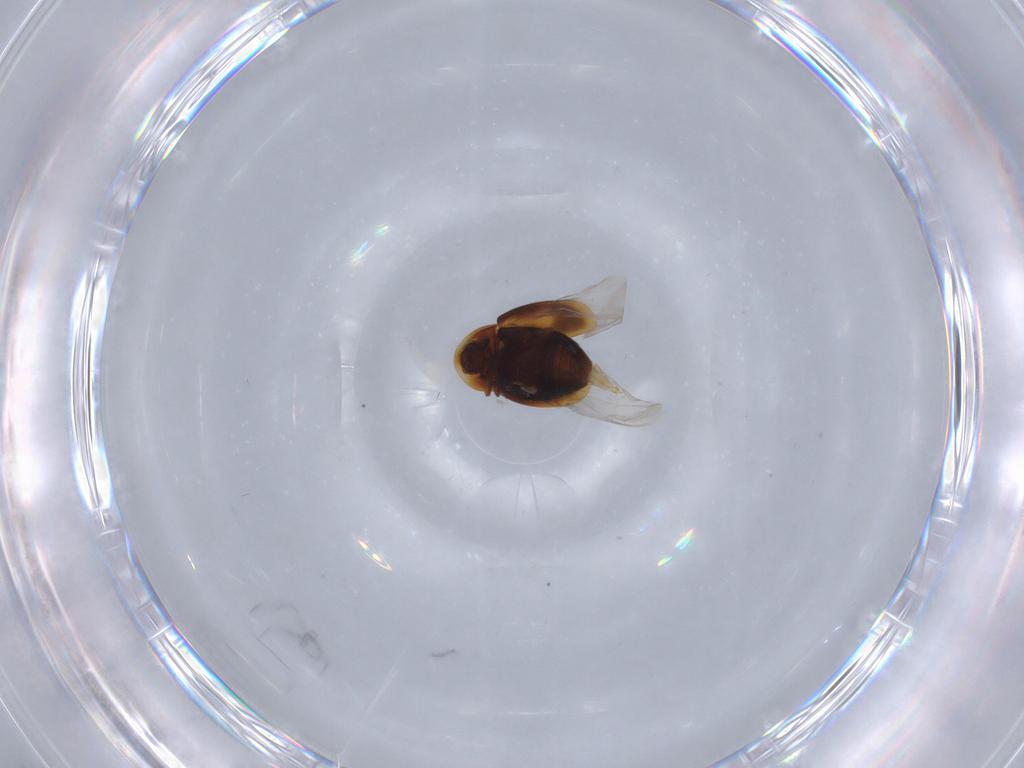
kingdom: Animalia
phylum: Arthropoda
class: Insecta
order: Coleoptera
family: Corylophidae
